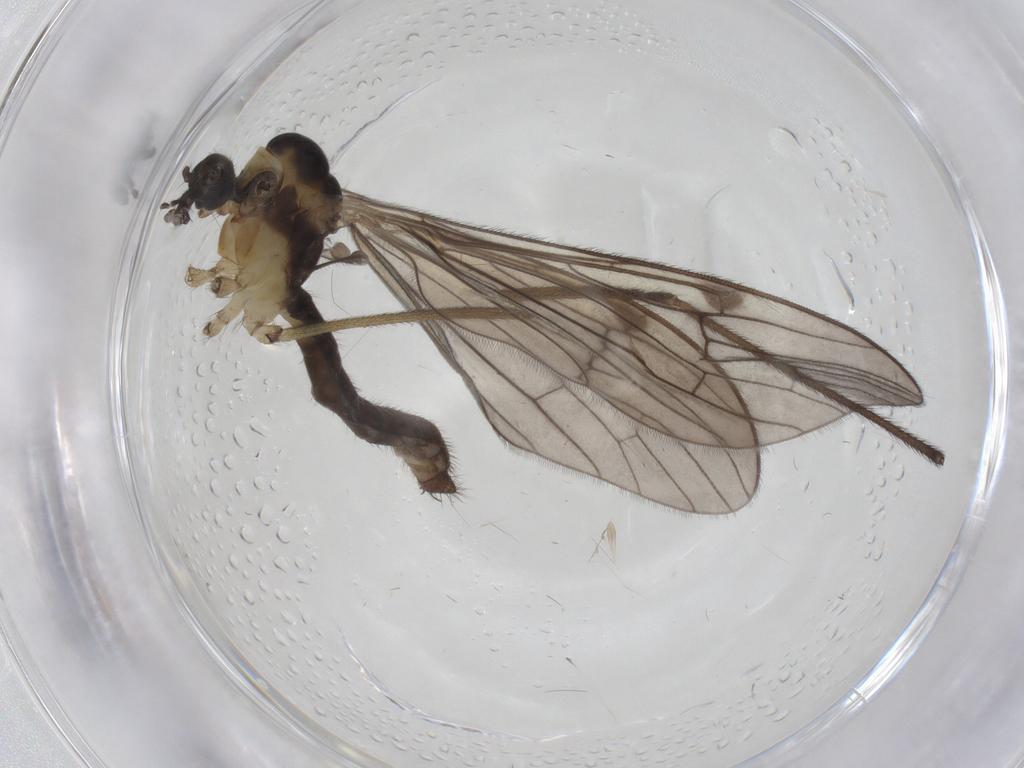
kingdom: Animalia
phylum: Arthropoda
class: Insecta
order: Diptera
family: Limoniidae
